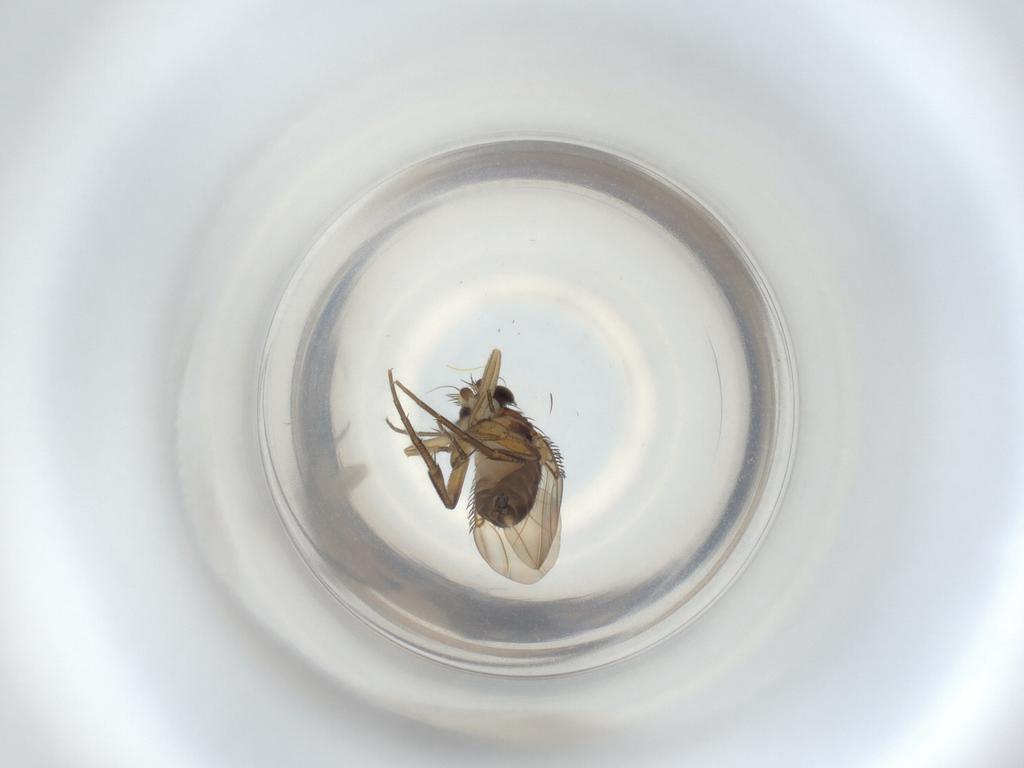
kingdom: Animalia
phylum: Arthropoda
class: Insecta
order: Diptera
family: Phoridae
